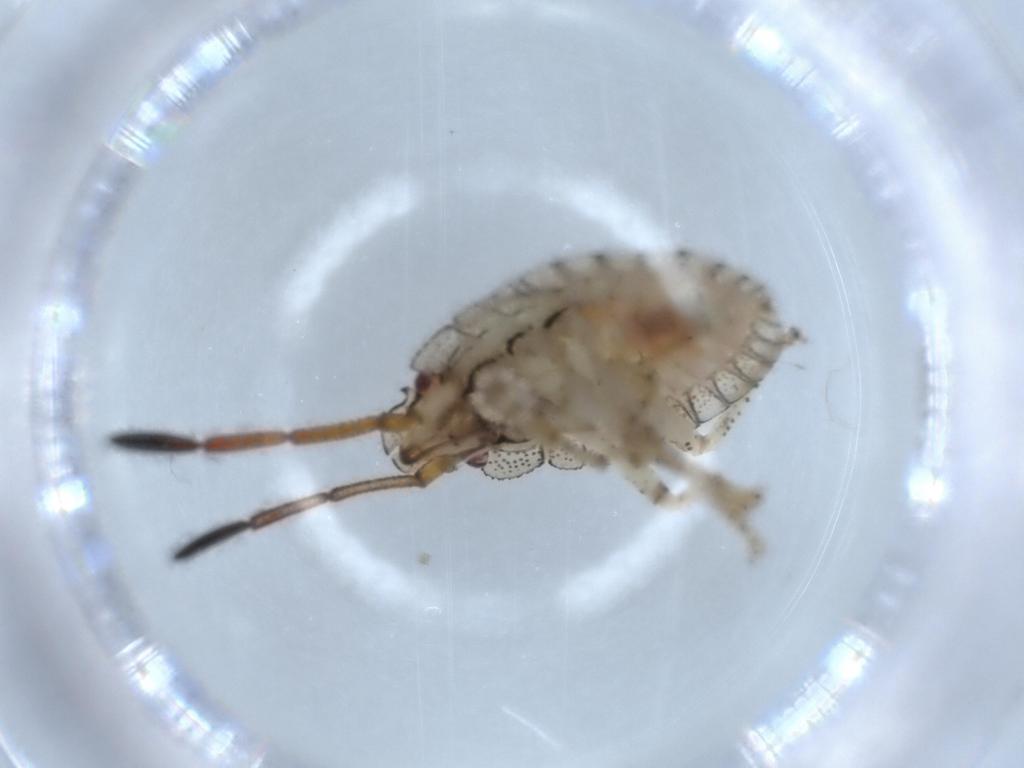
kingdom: Animalia
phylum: Arthropoda
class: Insecta
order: Hemiptera
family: Pentatomidae
